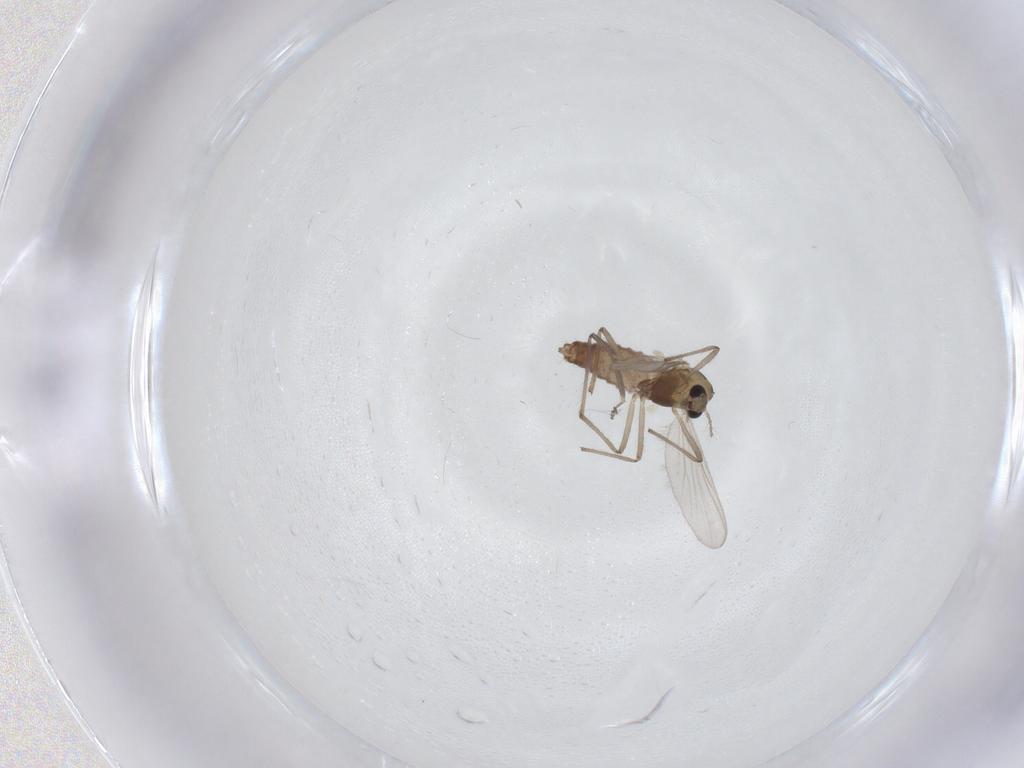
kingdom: Animalia
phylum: Arthropoda
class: Insecta
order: Diptera
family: Chironomidae
